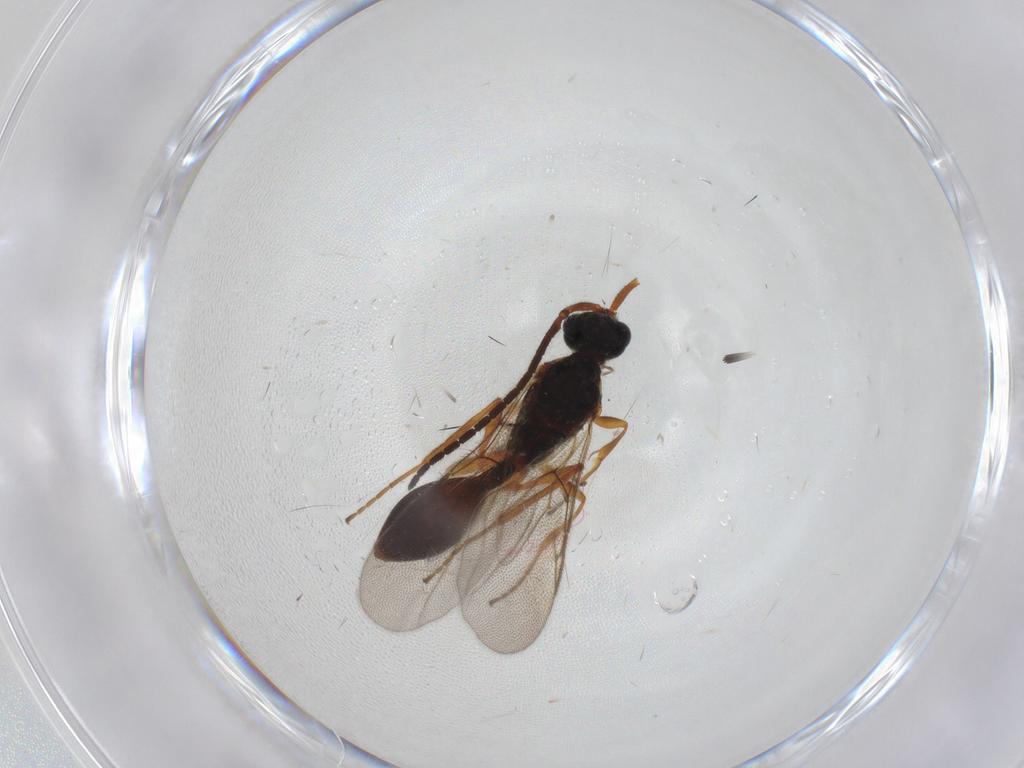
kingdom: Animalia
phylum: Arthropoda
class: Insecta
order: Hymenoptera
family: Diapriidae
